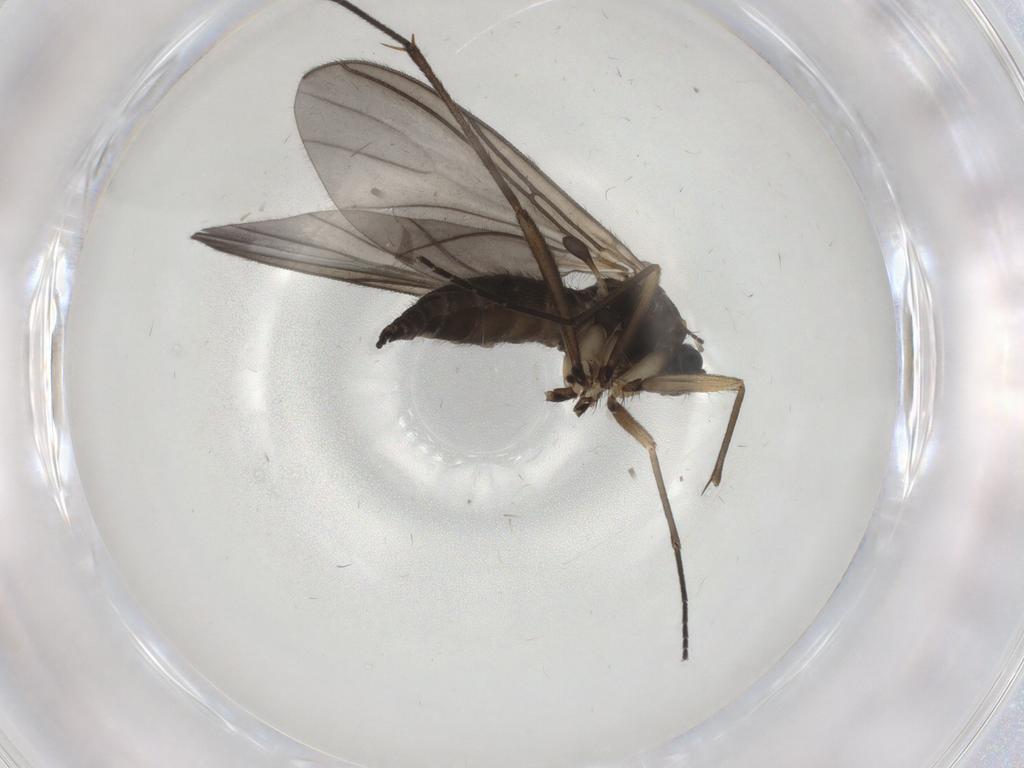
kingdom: Animalia
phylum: Arthropoda
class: Insecta
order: Diptera
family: Sciaridae
